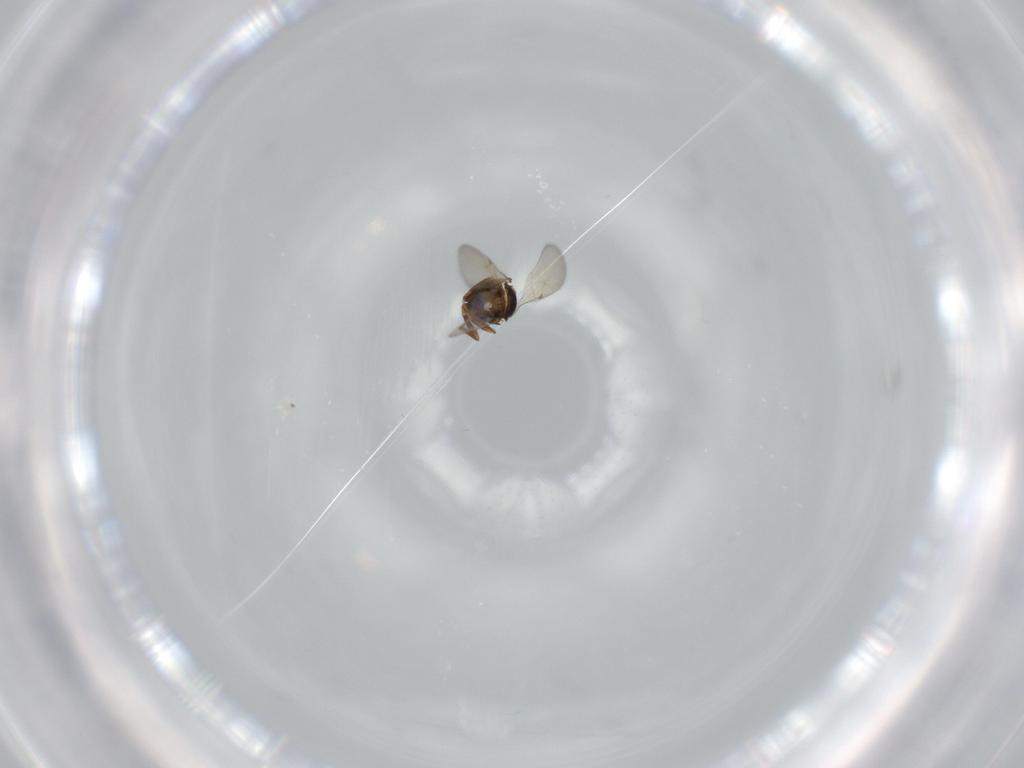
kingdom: Animalia
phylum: Arthropoda
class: Insecta
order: Hymenoptera
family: Scelionidae
